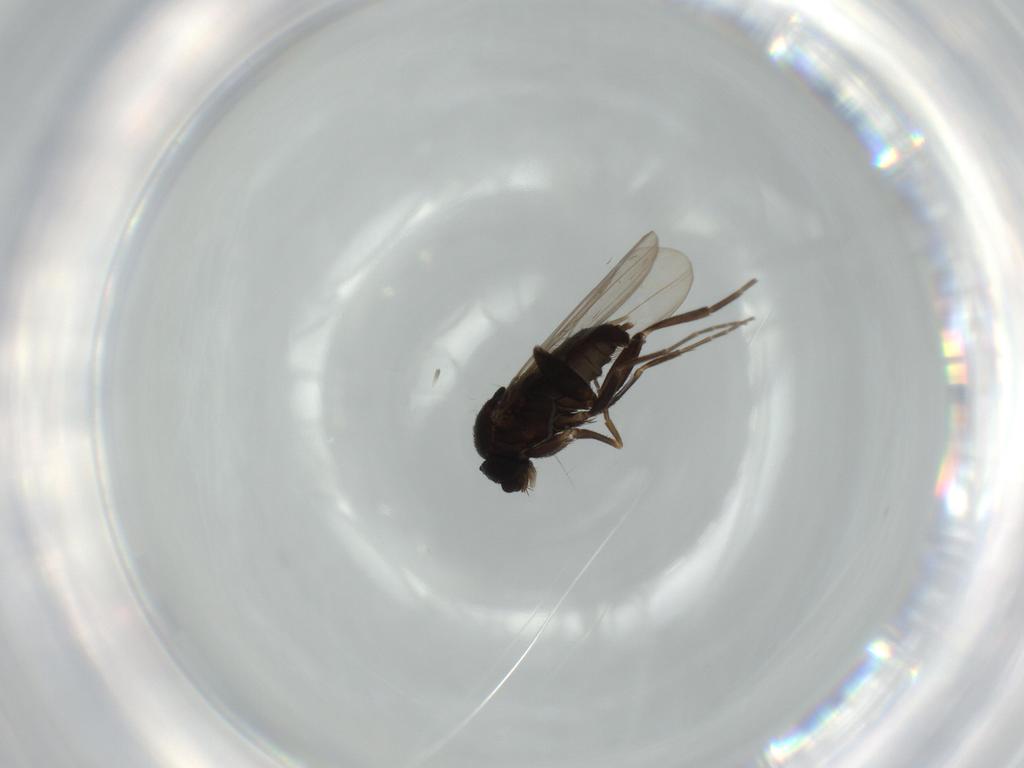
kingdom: Animalia
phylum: Arthropoda
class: Insecta
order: Diptera
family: Phoridae
